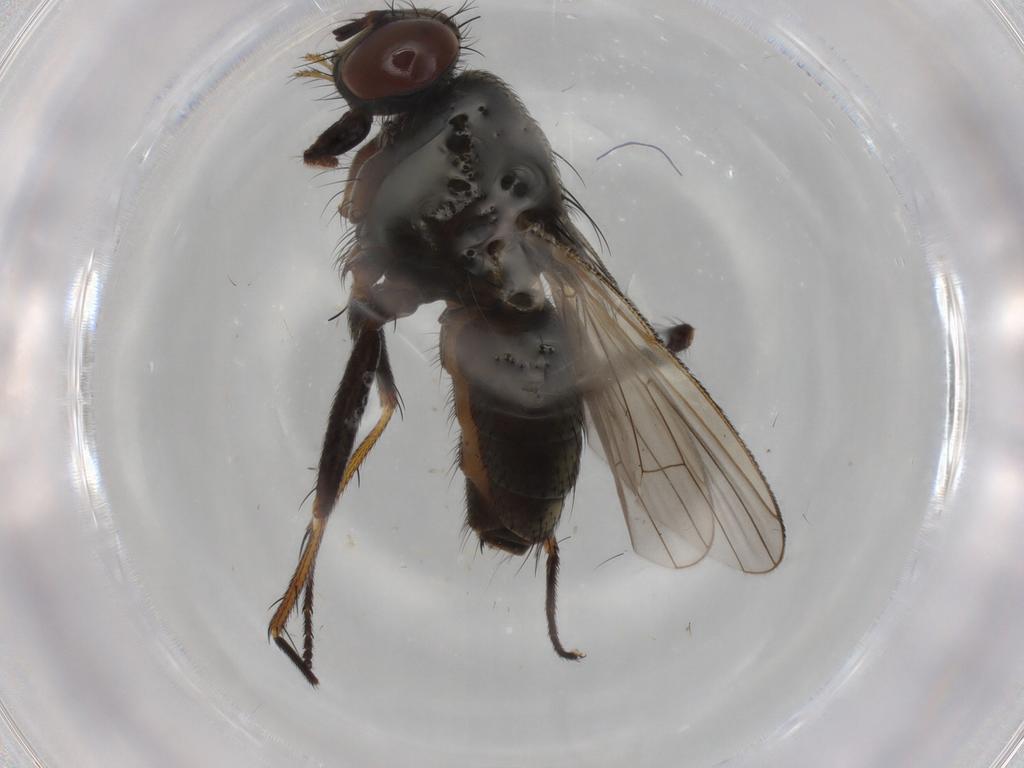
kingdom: Animalia
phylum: Arthropoda
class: Insecta
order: Diptera
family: Muscidae
